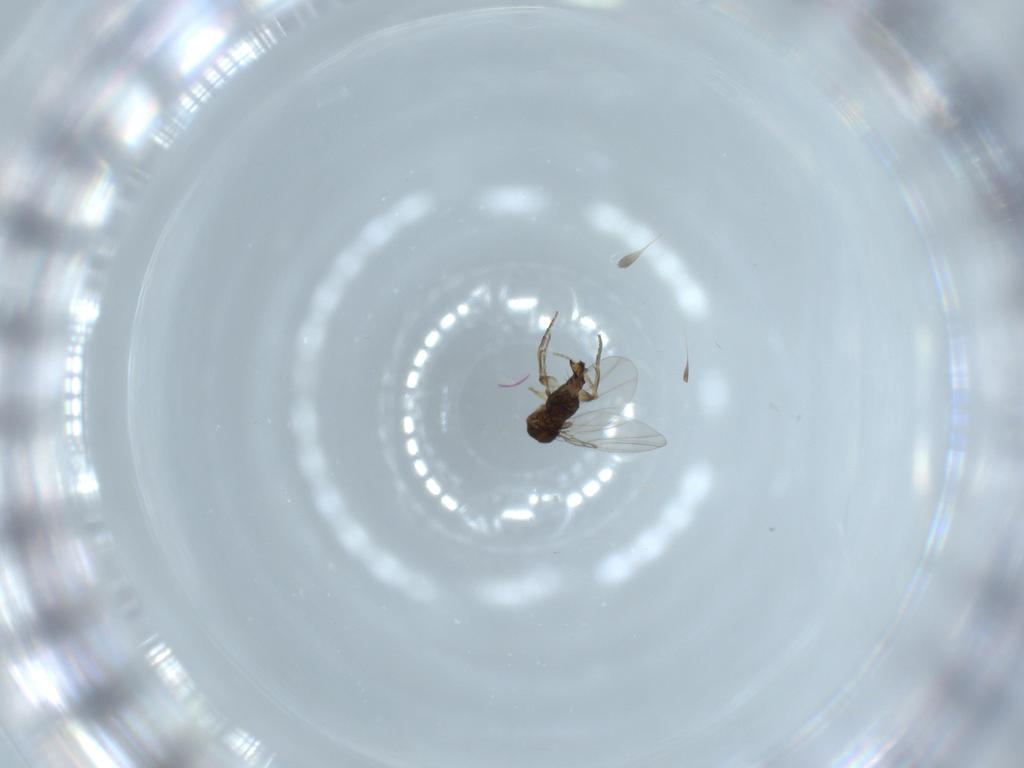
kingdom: Animalia
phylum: Arthropoda
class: Insecta
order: Diptera
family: Phoridae
